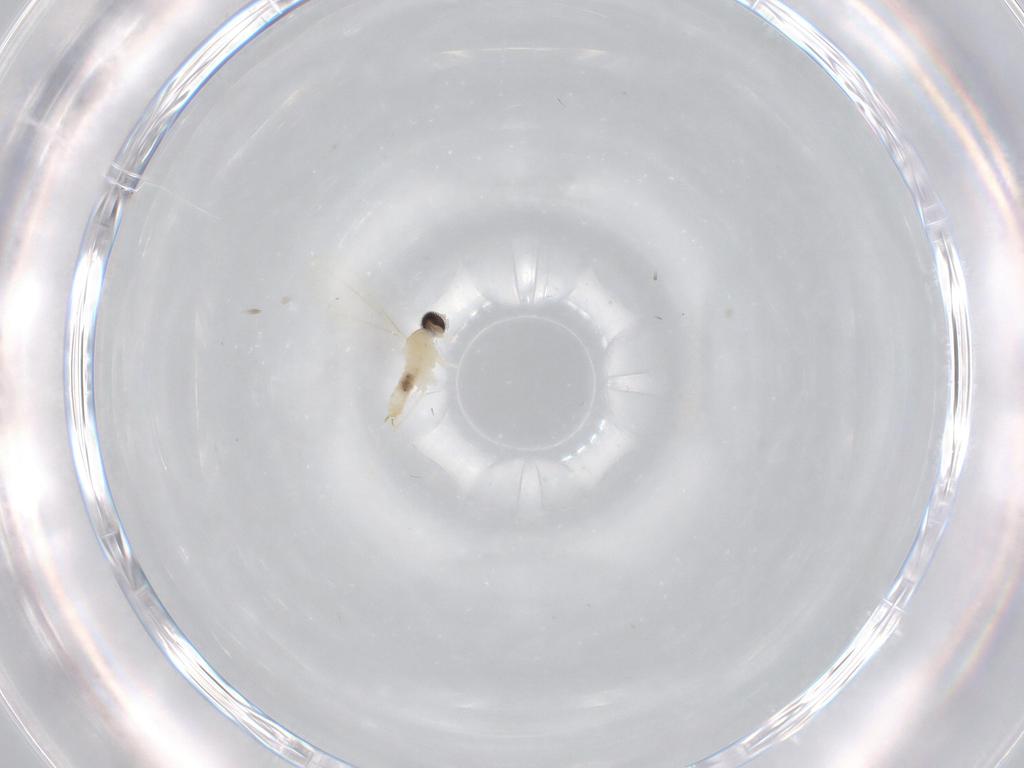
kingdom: Animalia
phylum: Arthropoda
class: Insecta
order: Diptera
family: Cecidomyiidae
